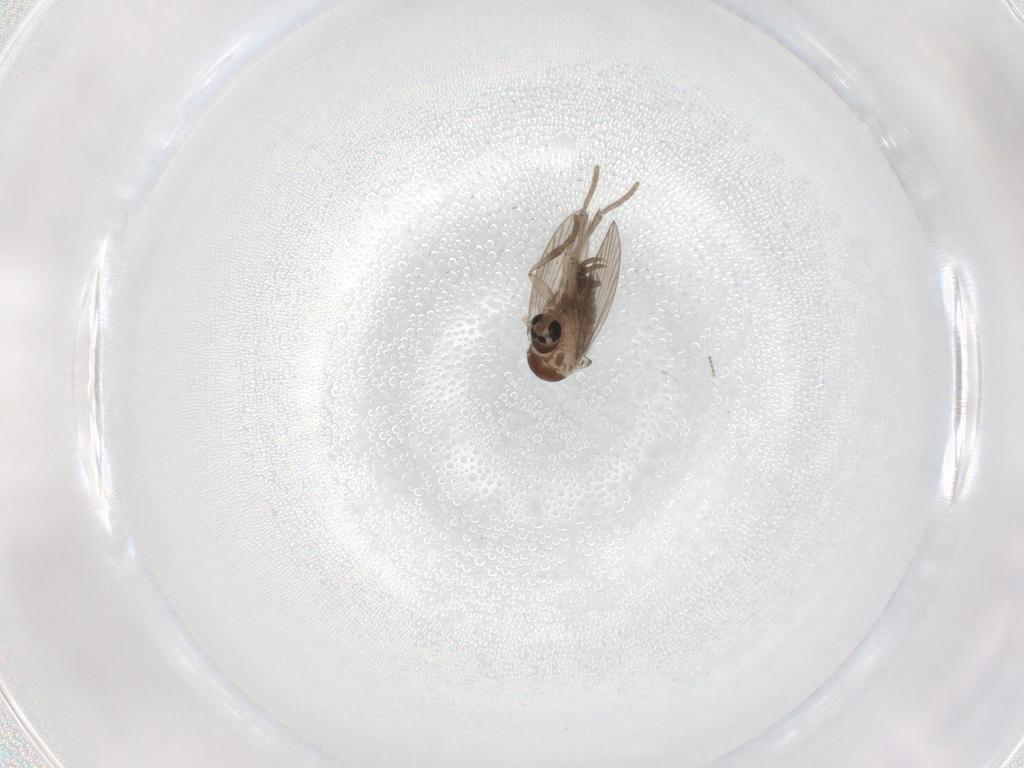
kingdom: Animalia
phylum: Arthropoda
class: Insecta
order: Diptera
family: Psychodidae
